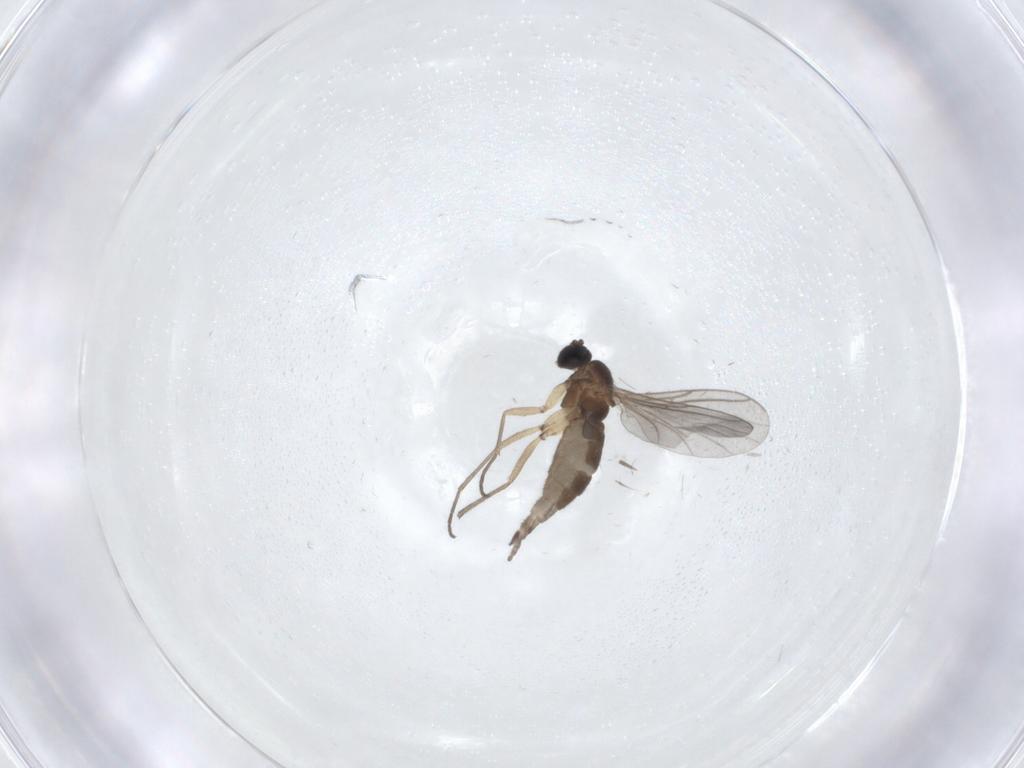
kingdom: Animalia
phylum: Arthropoda
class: Insecta
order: Diptera
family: Sciaridae
